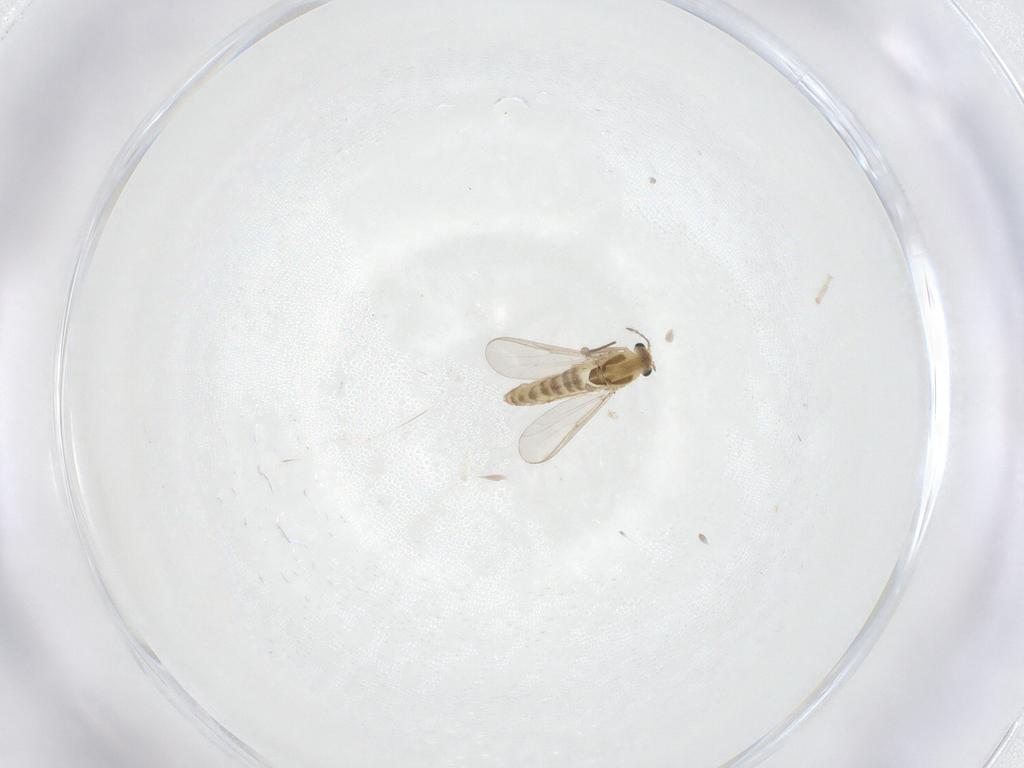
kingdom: Animalia
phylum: Arthropoda
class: Insecta
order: Diptera
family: Chironomidae
